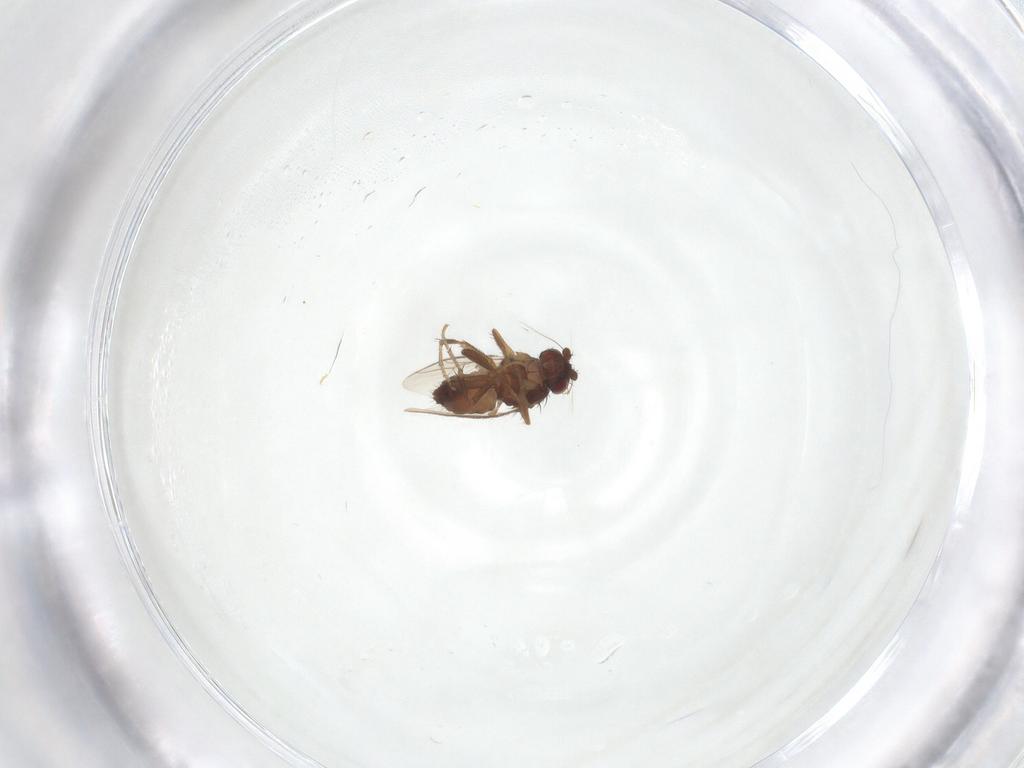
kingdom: Animalia
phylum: Arthropoda
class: Insecta
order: Diptera
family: Sphaeroceridae
